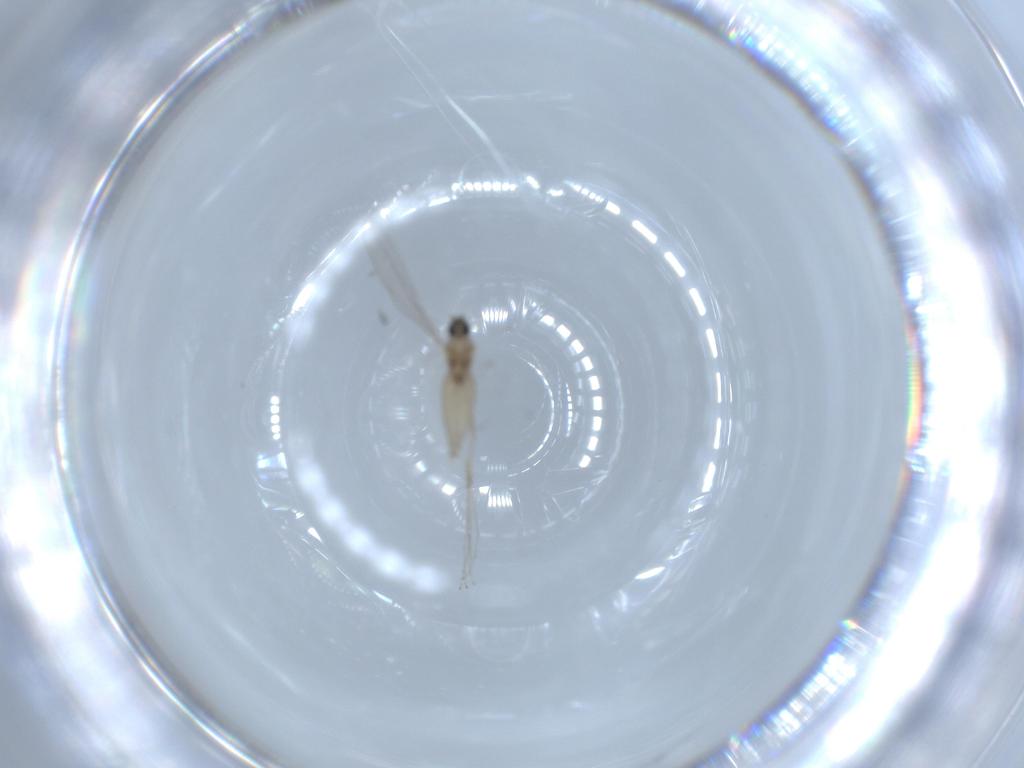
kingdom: Animalia
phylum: Arthropoda
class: Insecta
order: Diptera
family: Cecidomyiidae
